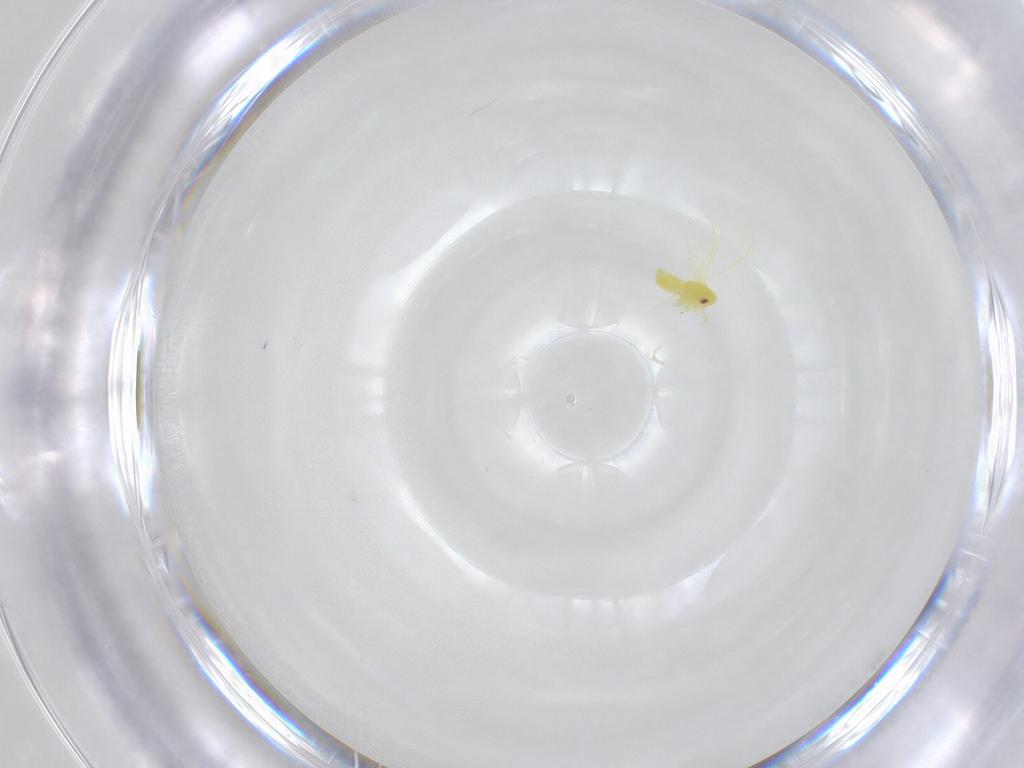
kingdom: Animalia
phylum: Arthropoda
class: Insecta
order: Hemiptera
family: Aleyrodidae
